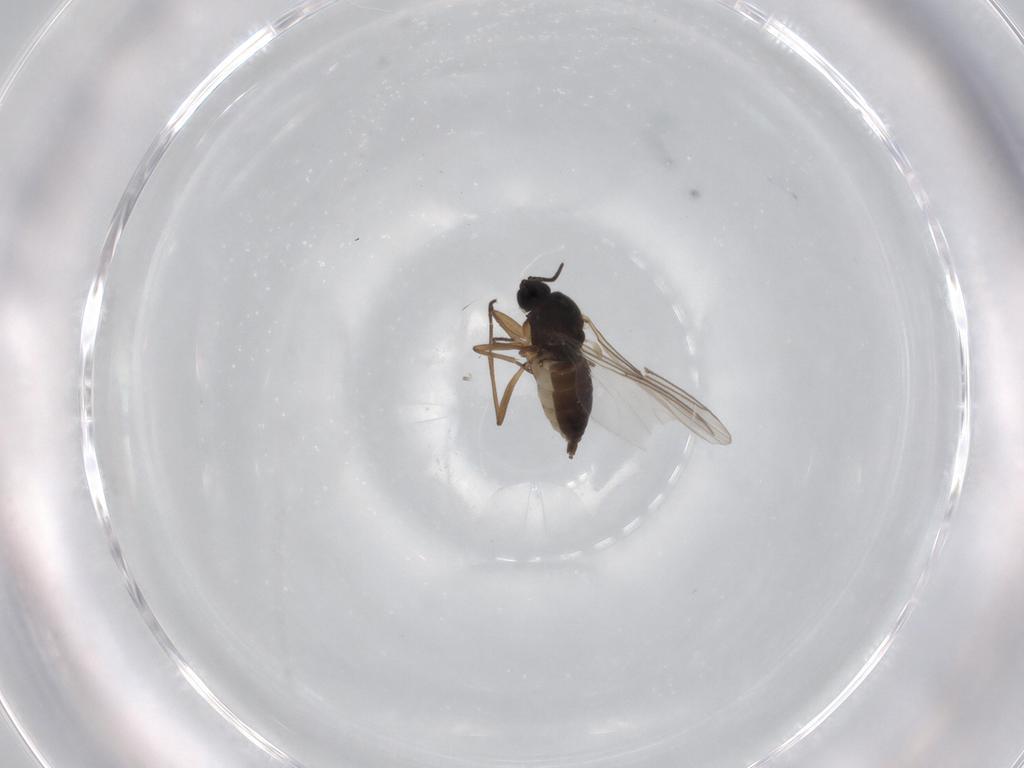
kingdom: Animalia
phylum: Arthropoda
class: Insecta
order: Diptera
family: Sciaridae
